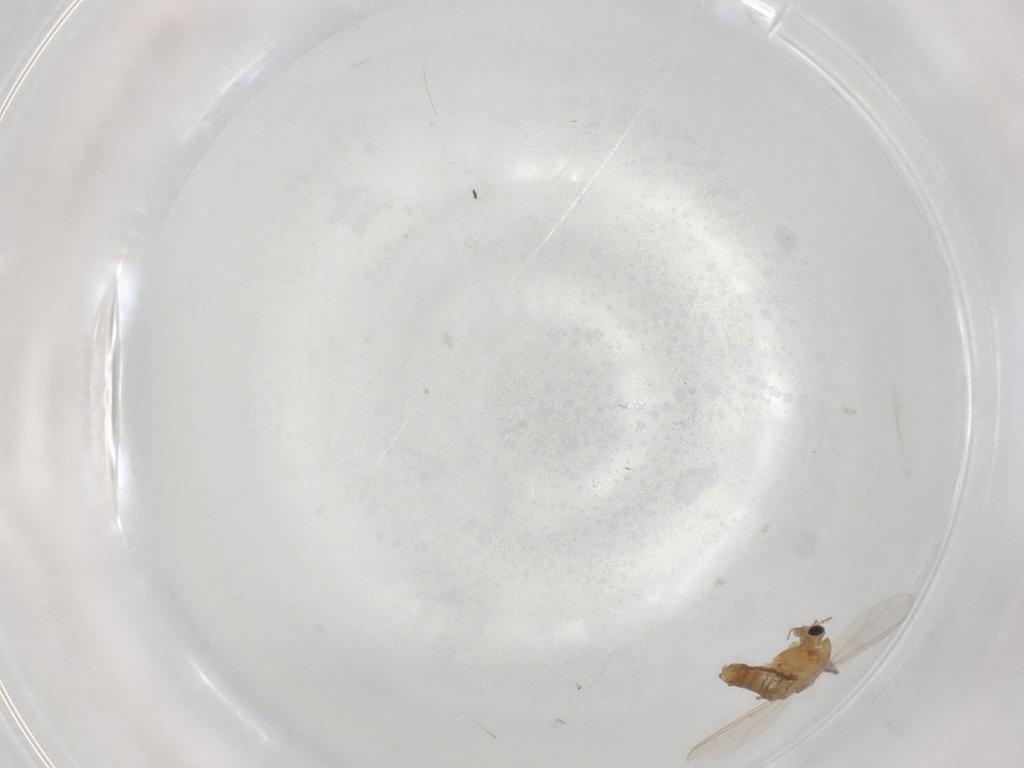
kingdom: Animalia
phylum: Arthropoda
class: Insecta
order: Diptera
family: Chironomidae
